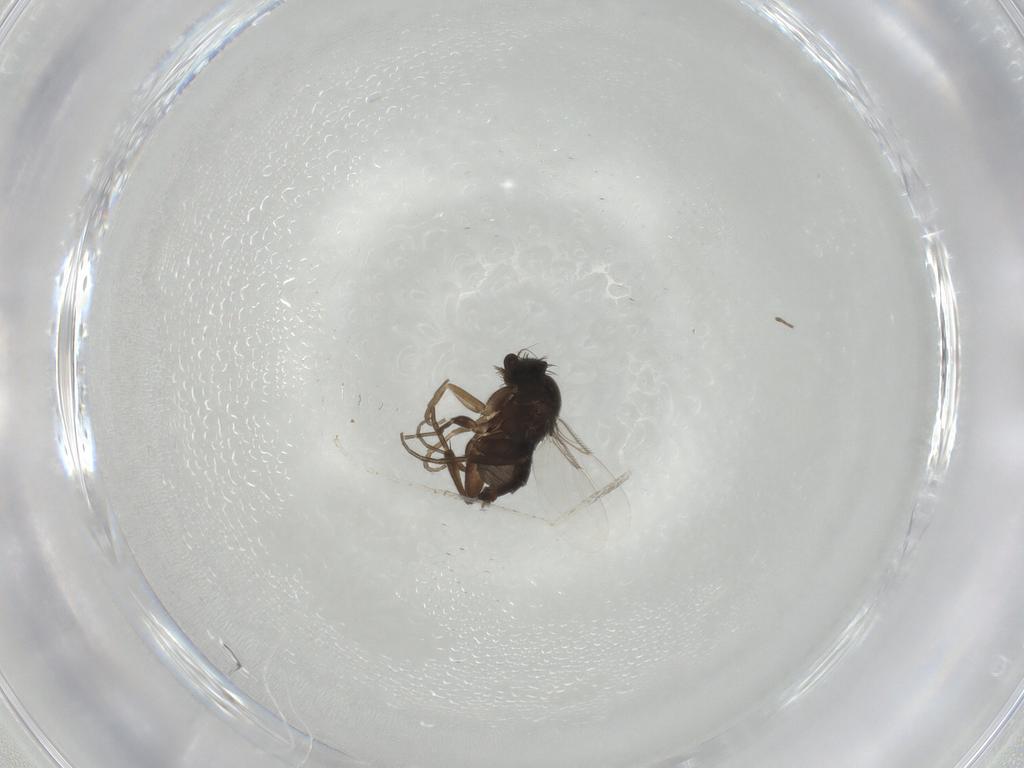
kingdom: Animalia
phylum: Arthropoda
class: Insecta
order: Diptera
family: Phoridae
